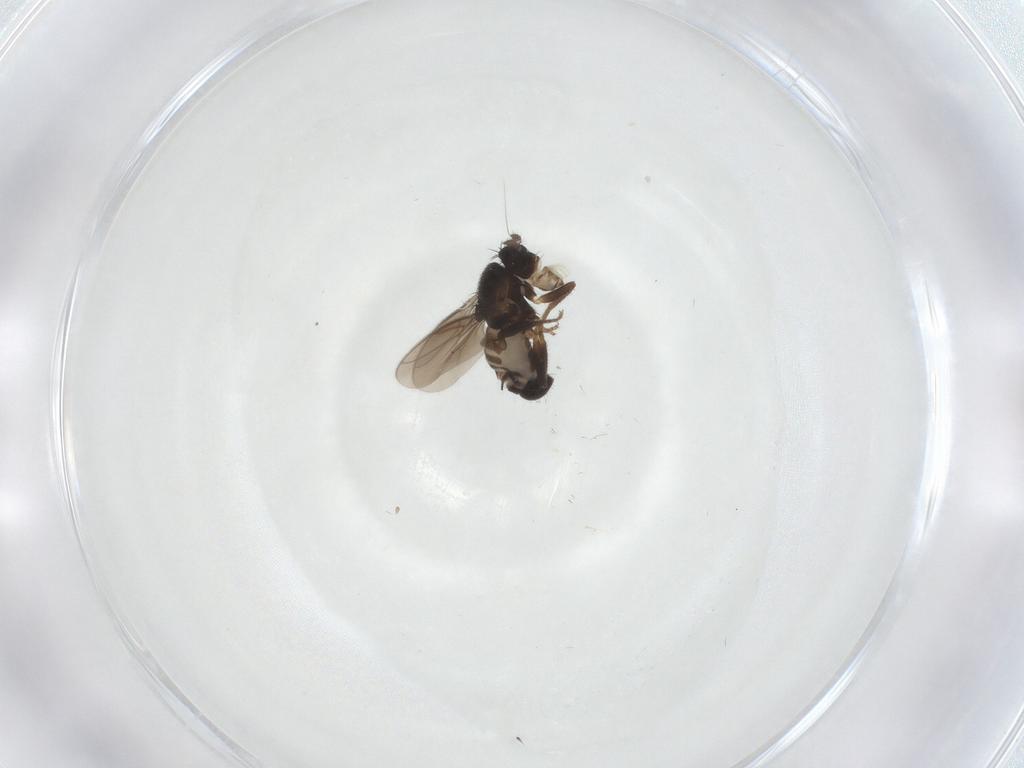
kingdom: Animalia
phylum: Arthropoda
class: Insecta
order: Diptera
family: Sphaeroceridae
